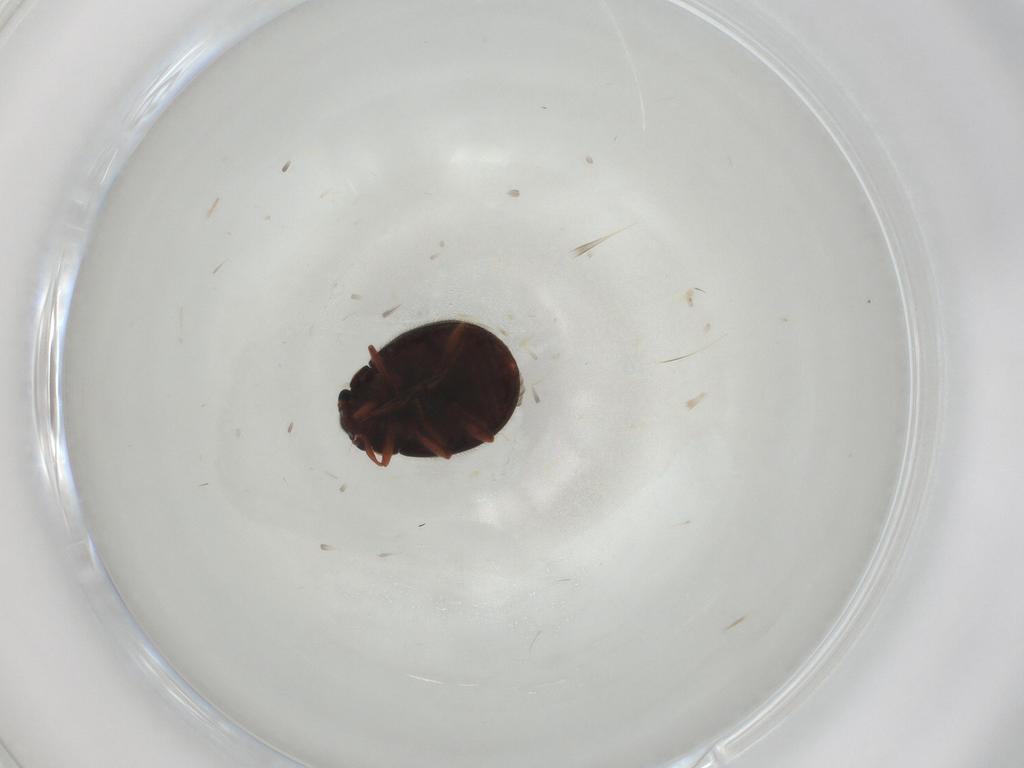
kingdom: Animalia
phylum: Arthropoda
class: Insecta
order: Coleoptera
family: Sphindidae
